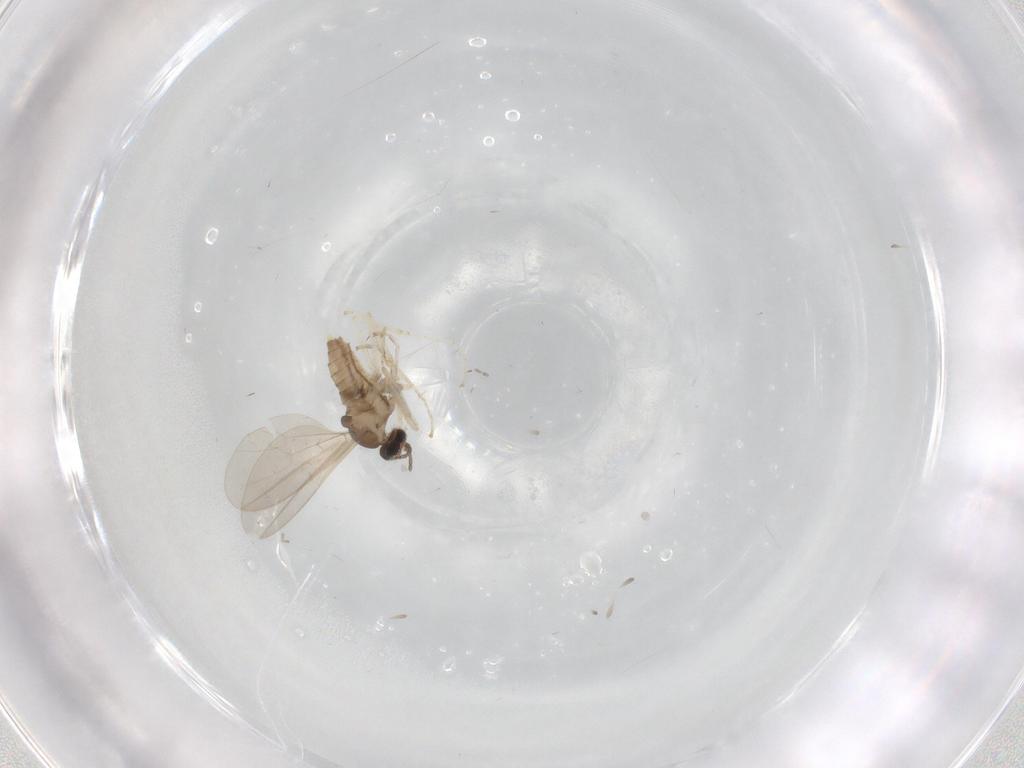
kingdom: Animalia
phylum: Arthropoda
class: Insecta
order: Diptera
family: Cecidomyiidae
